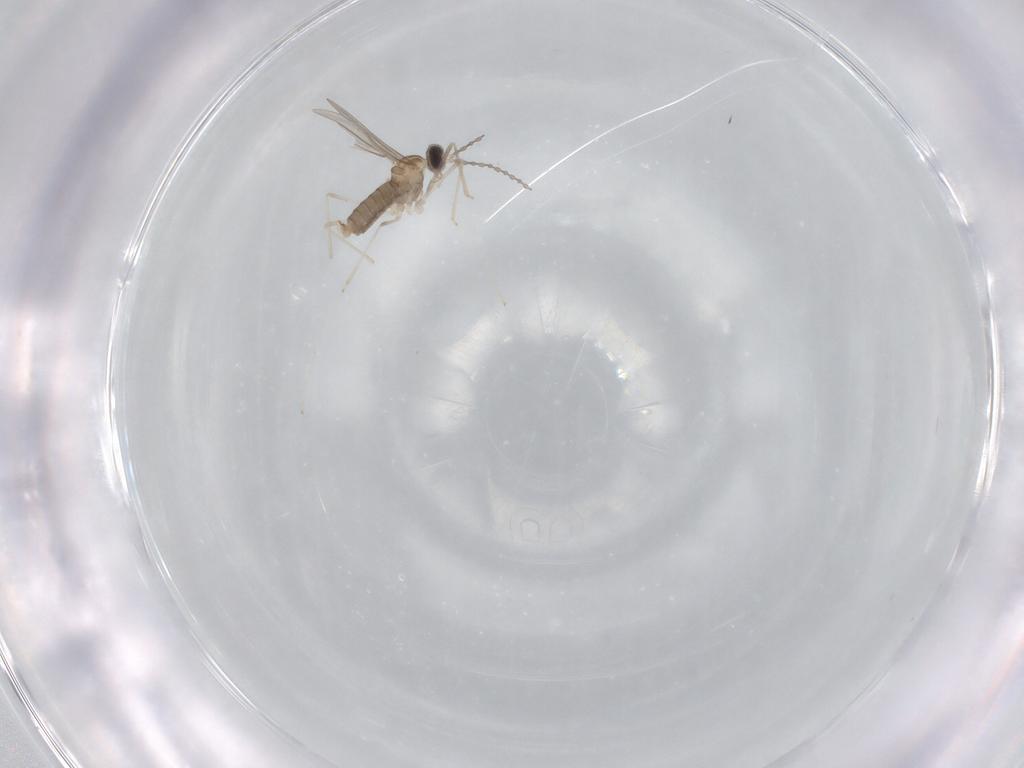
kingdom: Animalia
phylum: Arthropoda
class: Insecta
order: Diptera
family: Cecidomyiidae
